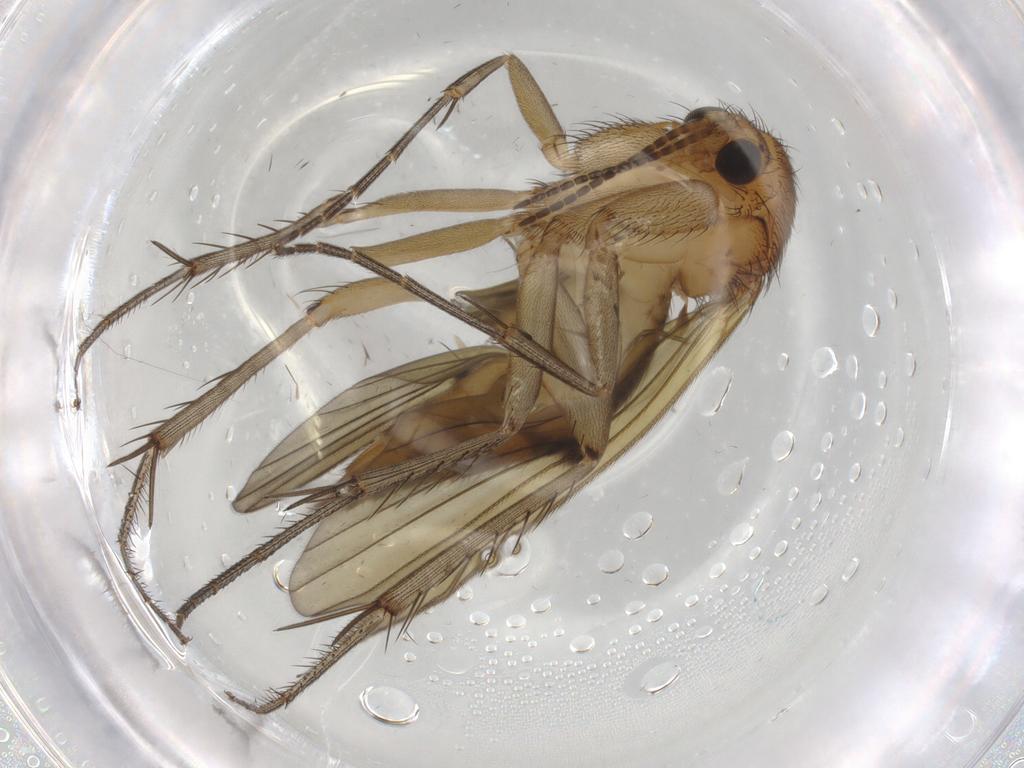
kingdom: Animalia
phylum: Arthropoda
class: Insecta
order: Diptera
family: Mycetophilidae
